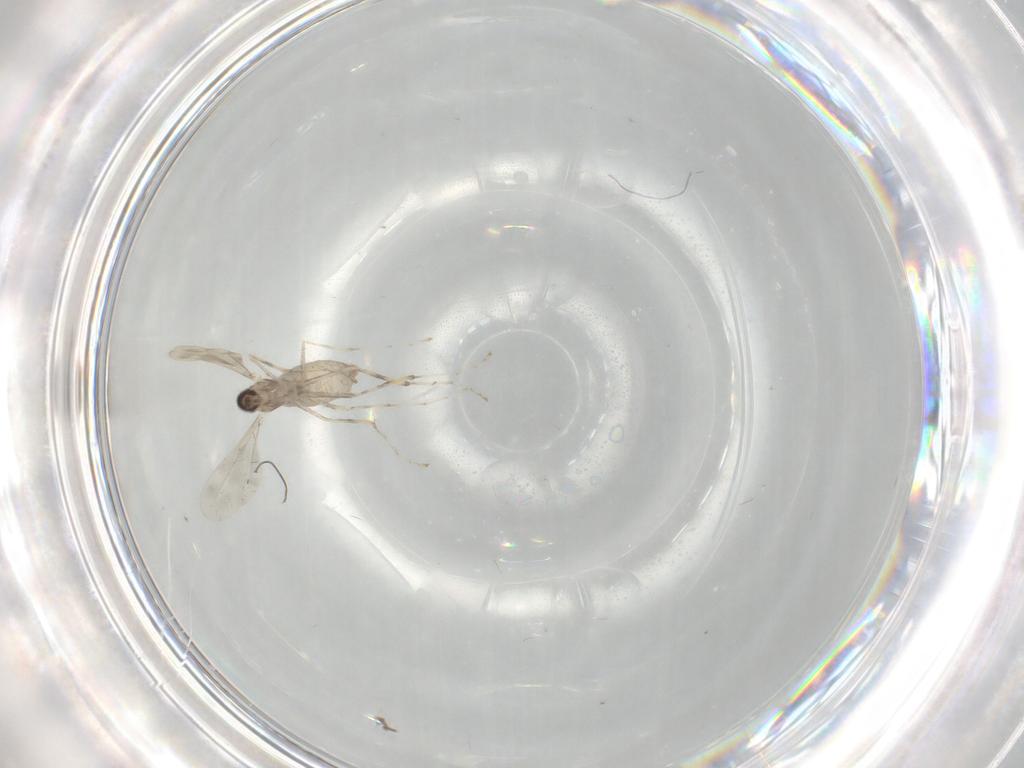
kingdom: Animalia
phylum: Arthropoda
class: Insecta
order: Diptera
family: Cecidomyiidae
